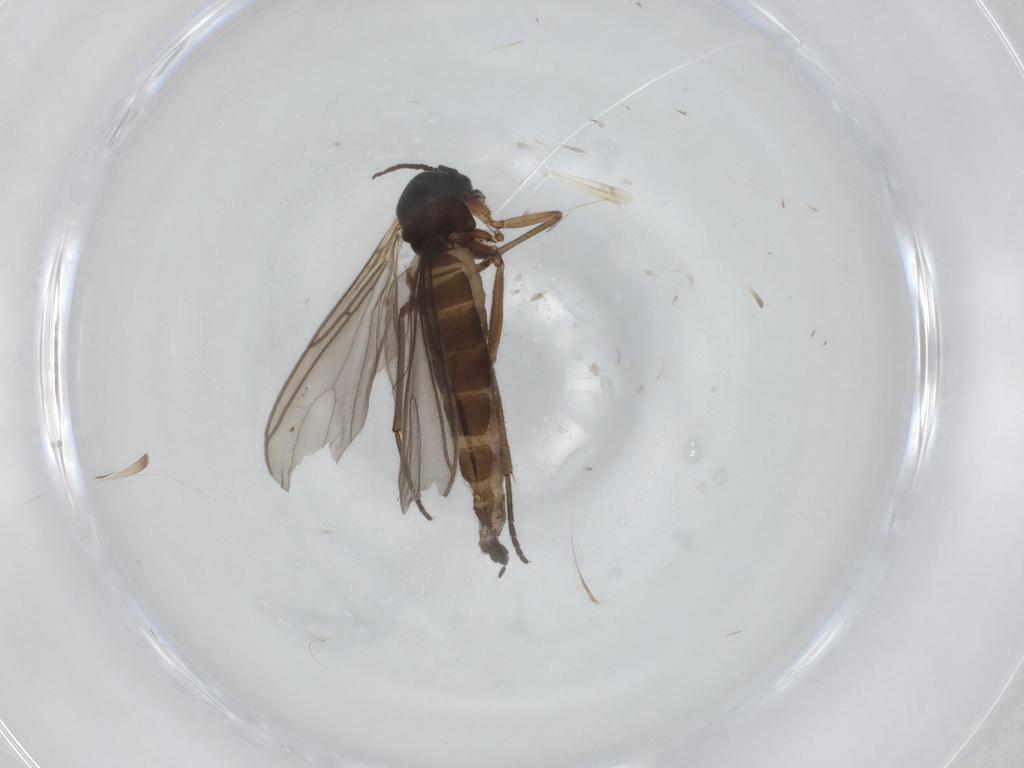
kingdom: Animalia
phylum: Arthropoda
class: Insecta
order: Diptera
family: Sciaridae
